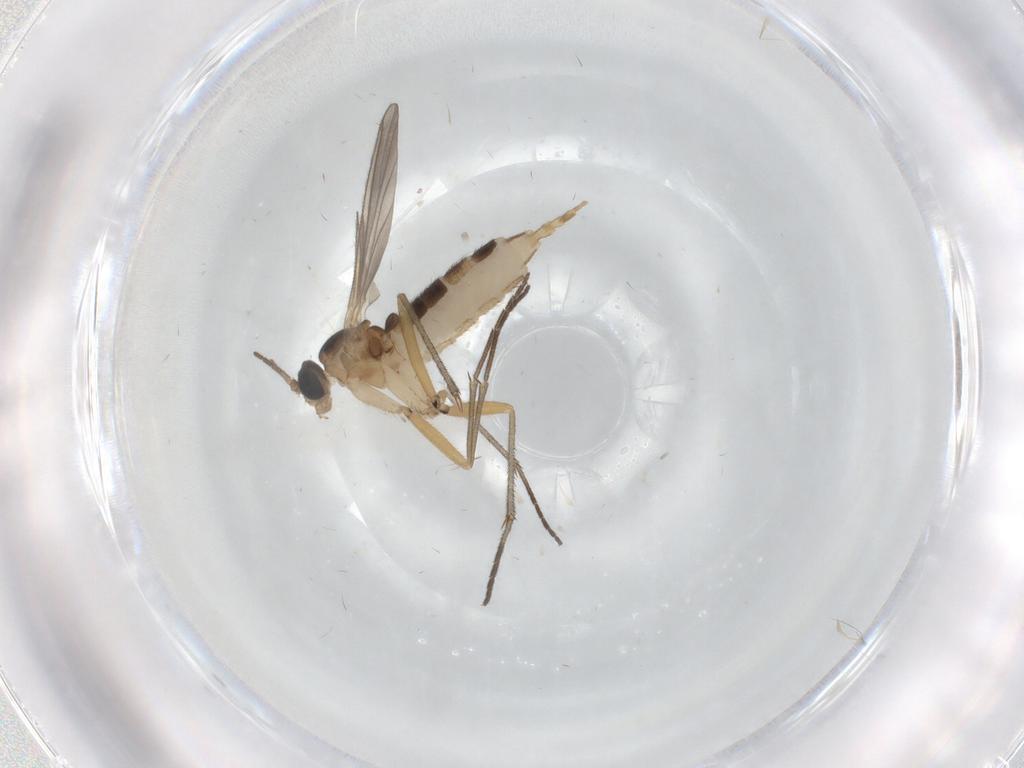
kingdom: Animalia
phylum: Arthropoda
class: Insecta
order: Diptera
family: Sciaridae
